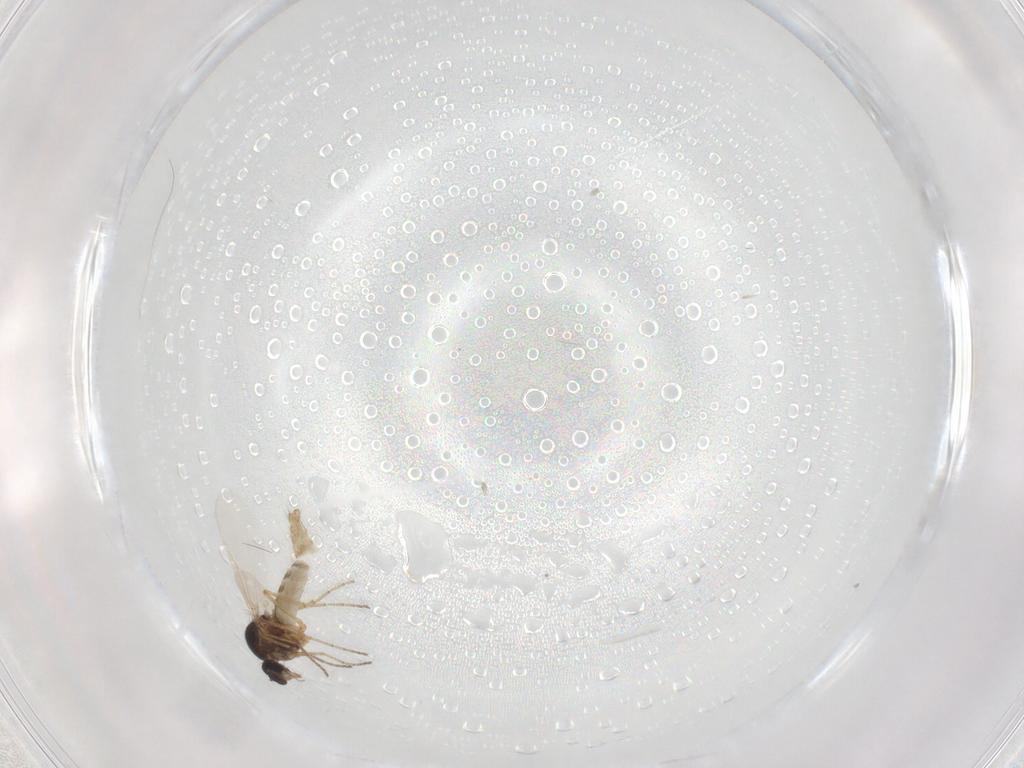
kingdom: Animalia
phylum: Arthropoda
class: Insecta
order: Diptera
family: Ceratopogonidae
